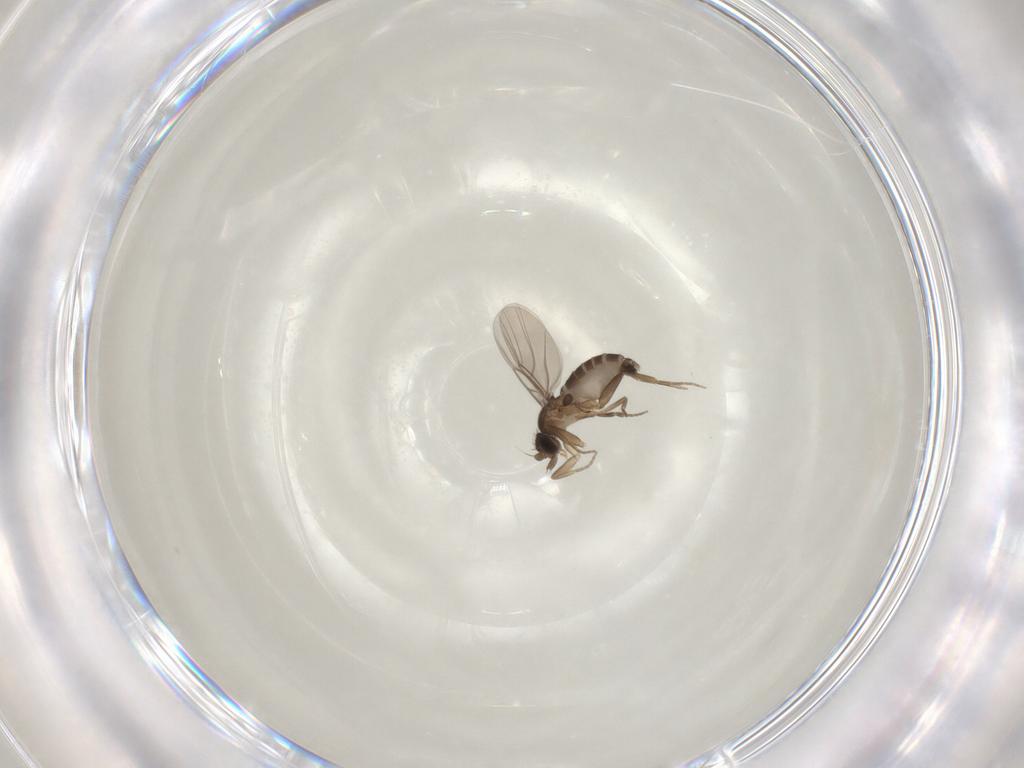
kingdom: Animalia
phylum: Arthropoda
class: Insecta
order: Diptera
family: Phoridae
